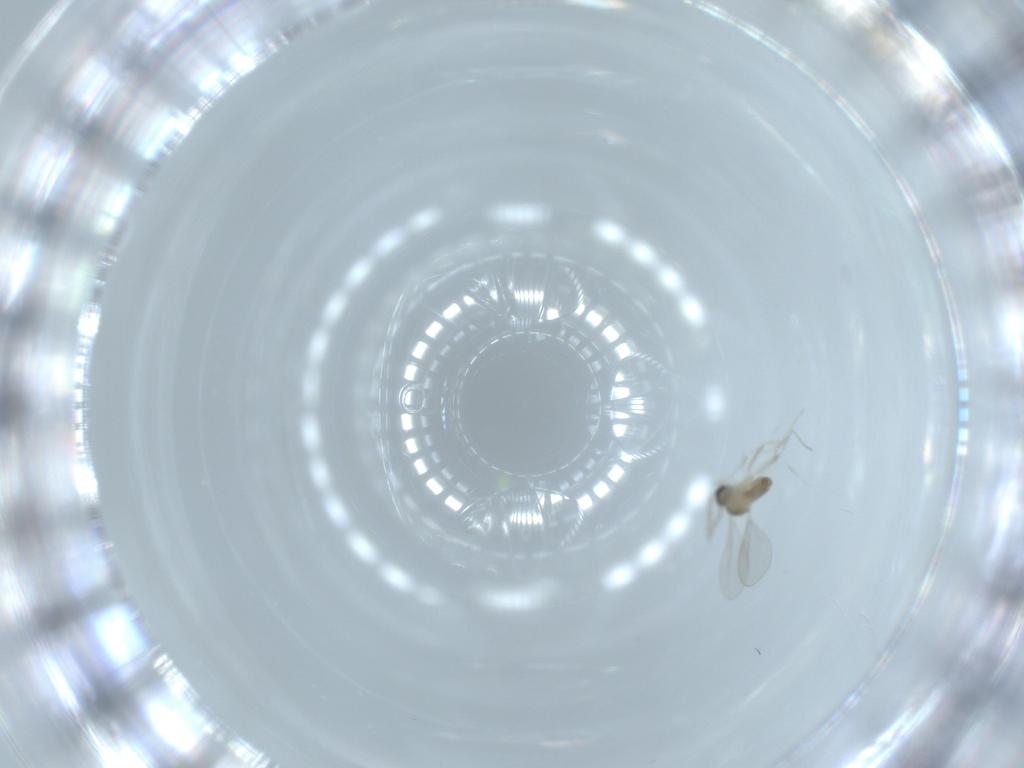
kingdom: Animalia
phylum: Arthropoda
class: Insecta
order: Diptera
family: Cecidomyiidae
